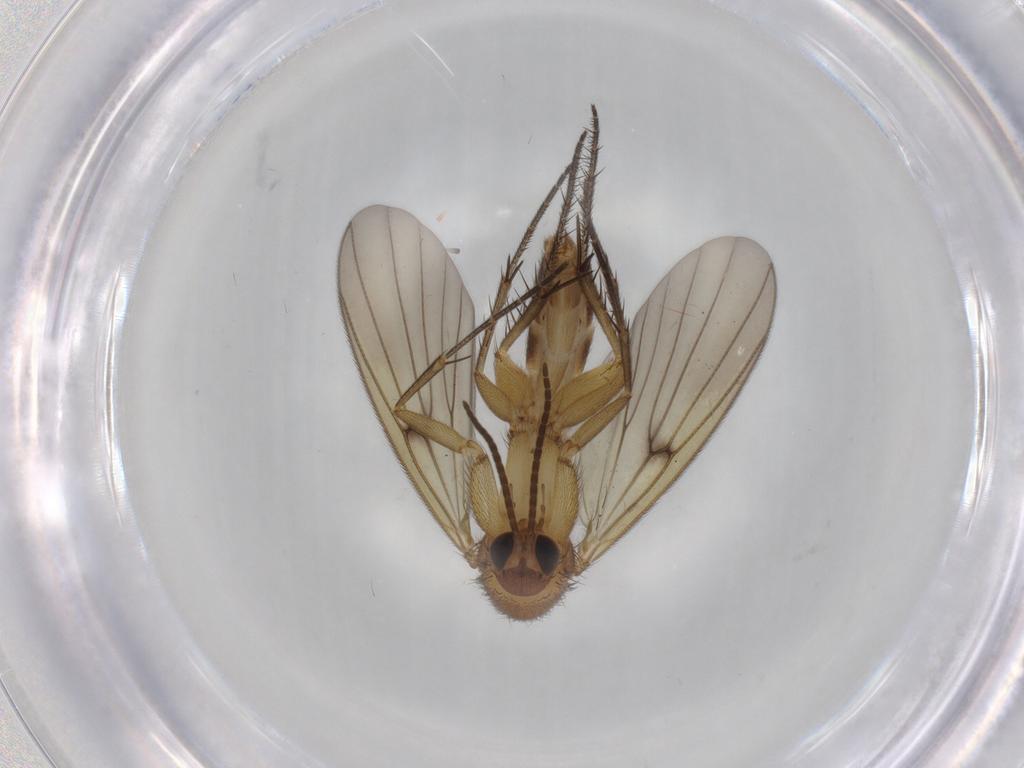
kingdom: Animalia
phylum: Arthropoda
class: Insecta
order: Diptera
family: Mycetophilidae
